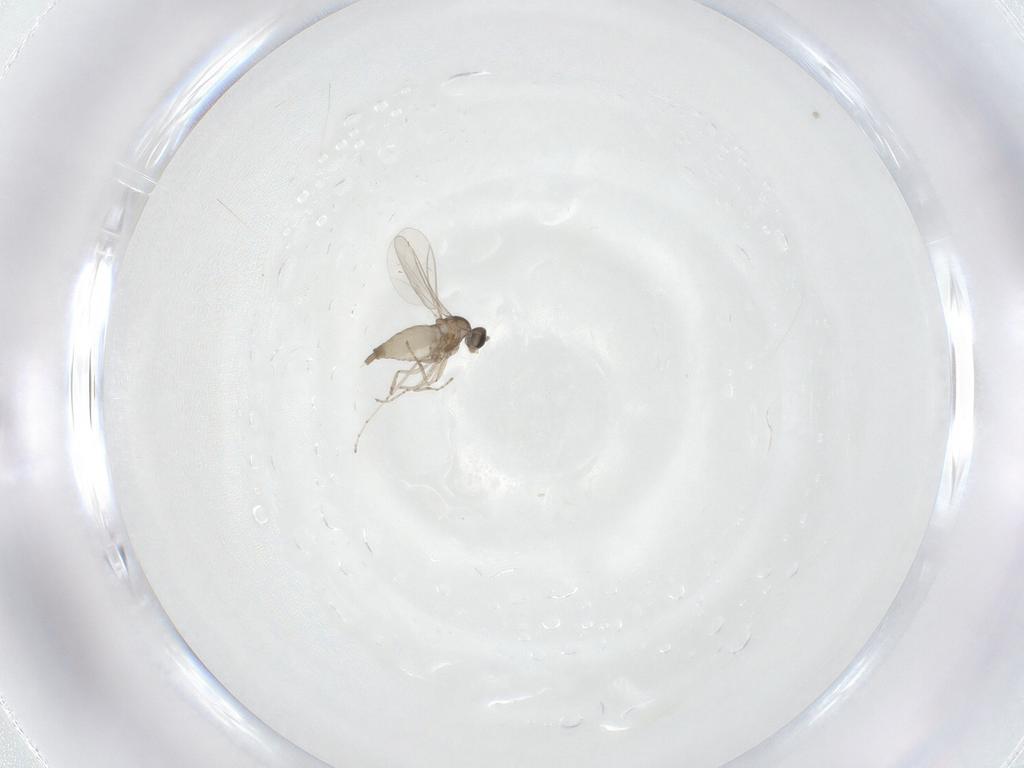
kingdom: Animalia
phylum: Arthropoda
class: Insecta
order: Diptera
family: Cecidomyiidae
